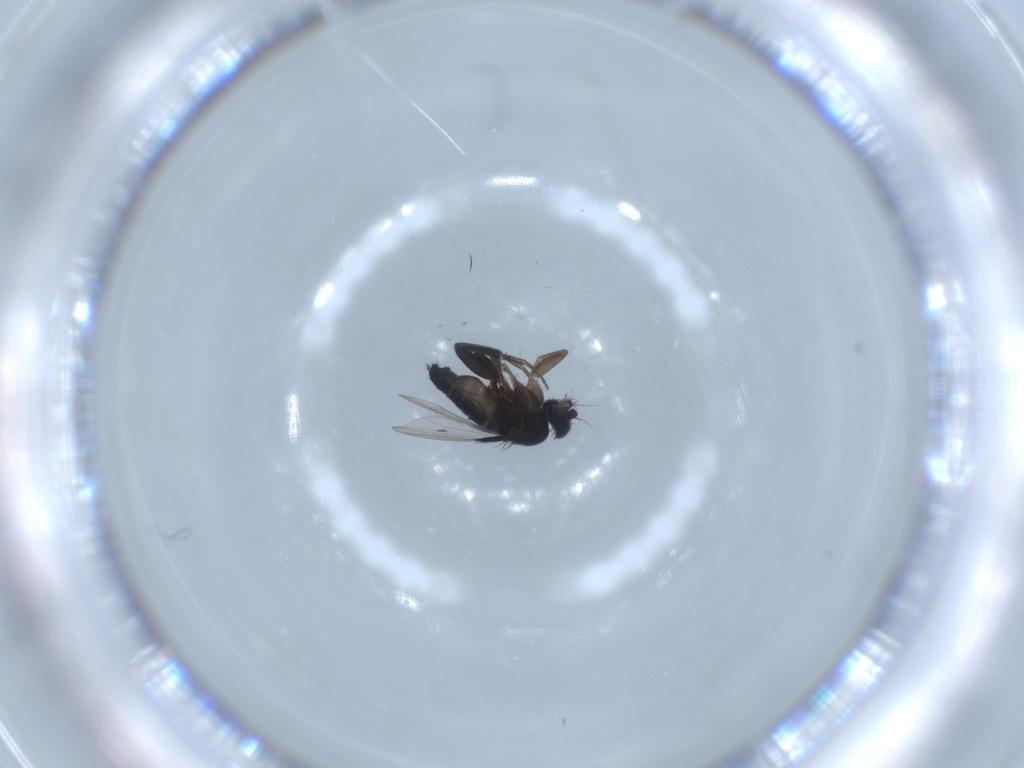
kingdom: Animalia
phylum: Arthropoda
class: Insecta
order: Diptera
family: Phoridae
